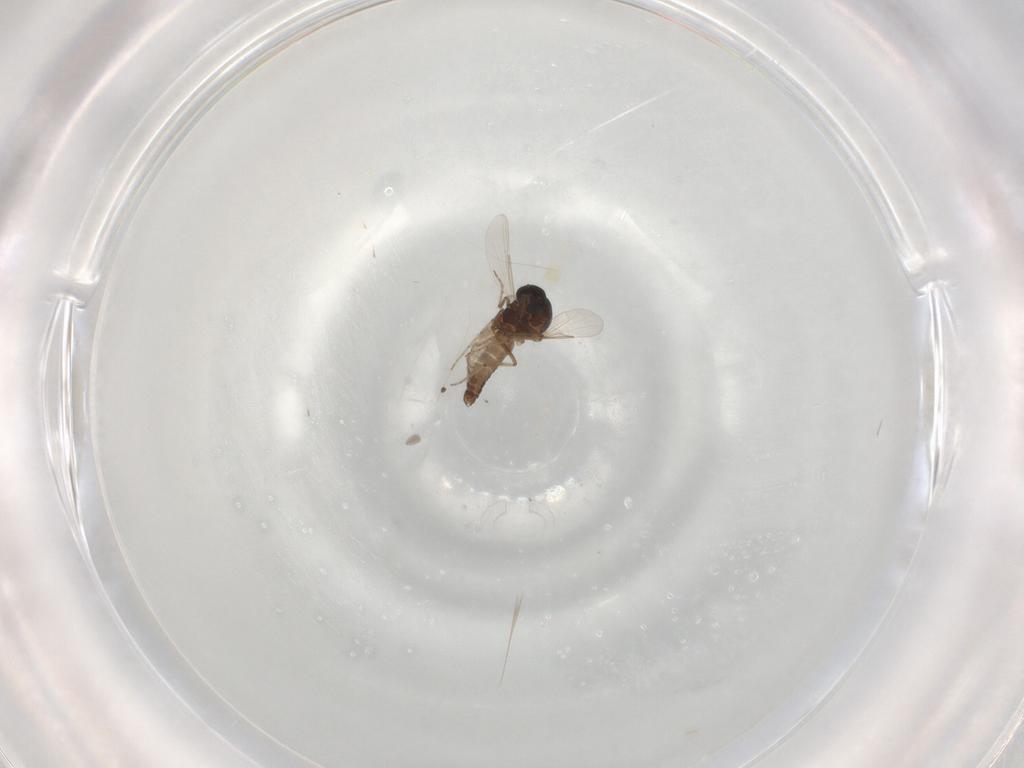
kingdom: Animalia
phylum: Arthropoda
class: Insecta
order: Diptera
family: Ceratopogonidae
